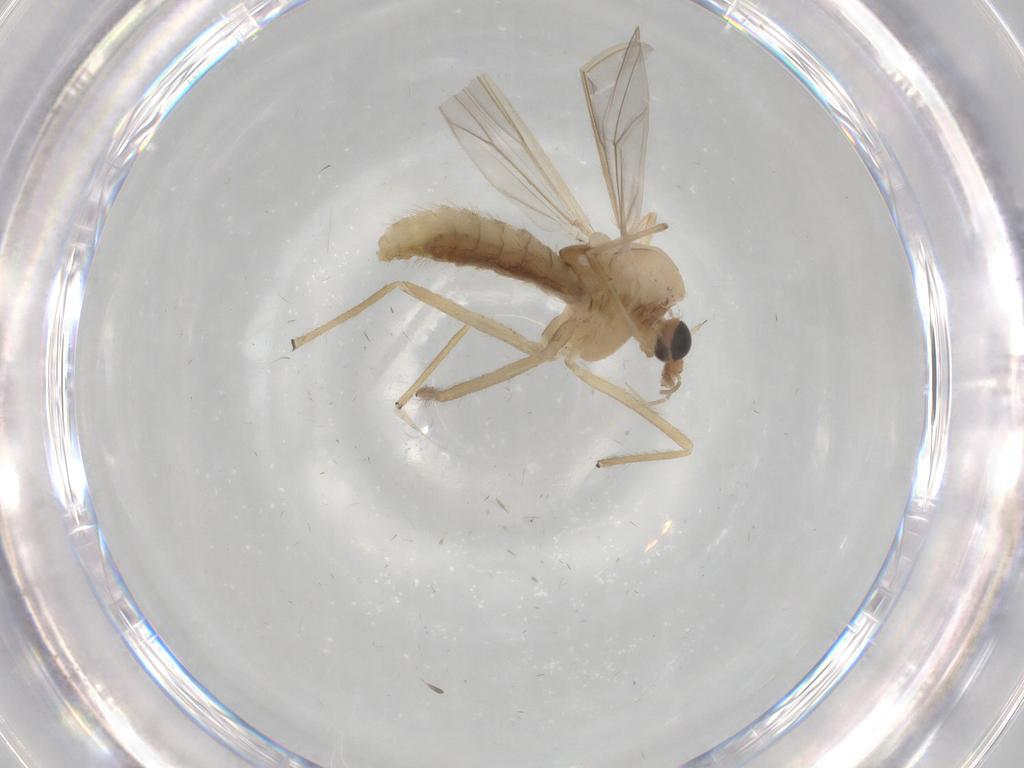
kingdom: Animalia
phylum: Arthropoda
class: Insecta
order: Diptera
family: Chironomidae
